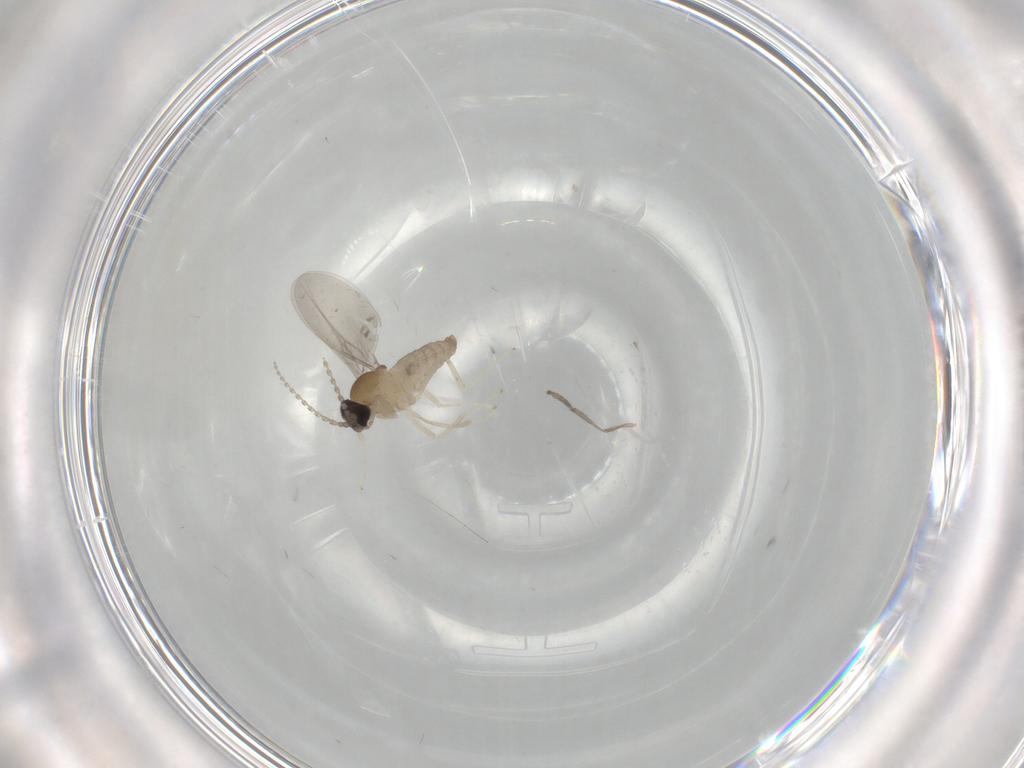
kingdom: Animalia
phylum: Arthropoda
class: Insecta
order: Diptera
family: Cecidomyiidae
